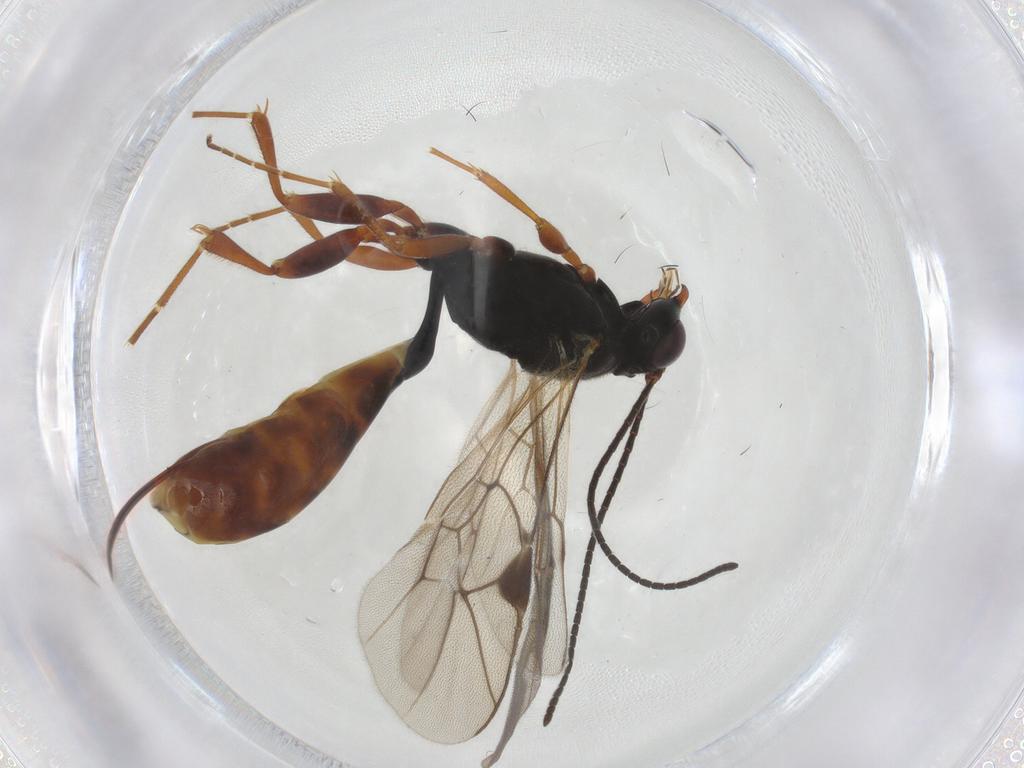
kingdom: Animalia
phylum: Arthropoda
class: Insecta
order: Hymenoptera
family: Ichneumonidae
